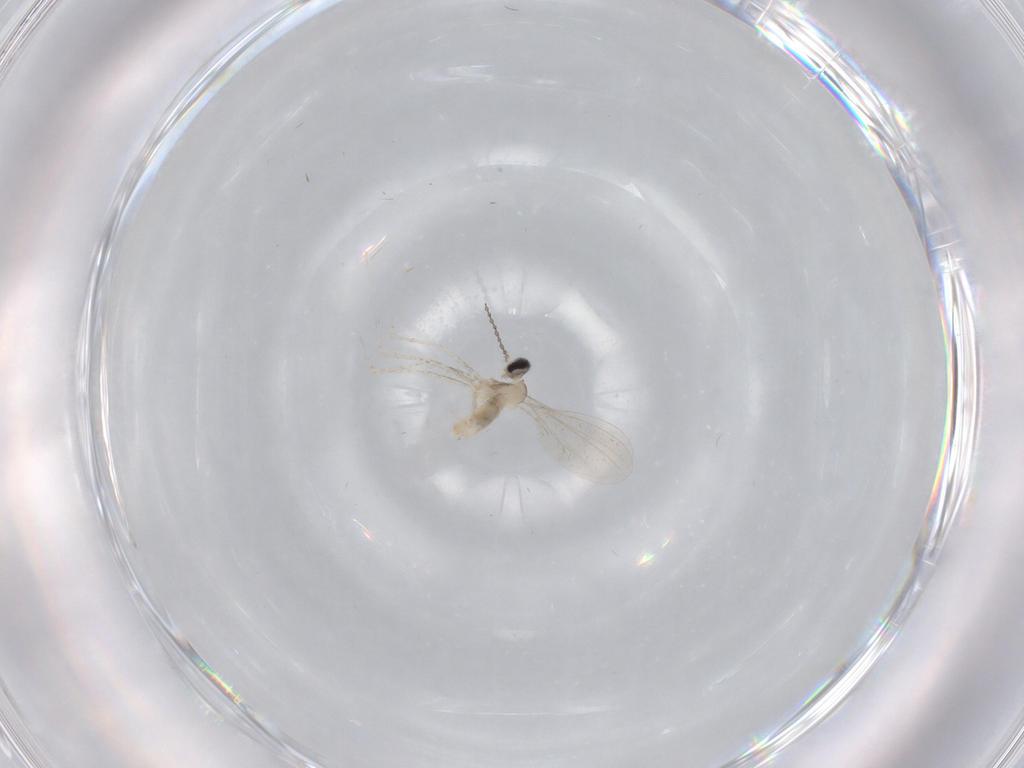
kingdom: Animalia
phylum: Arthropoda
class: Insecta
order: Diptera
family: Cecidomyiidae
